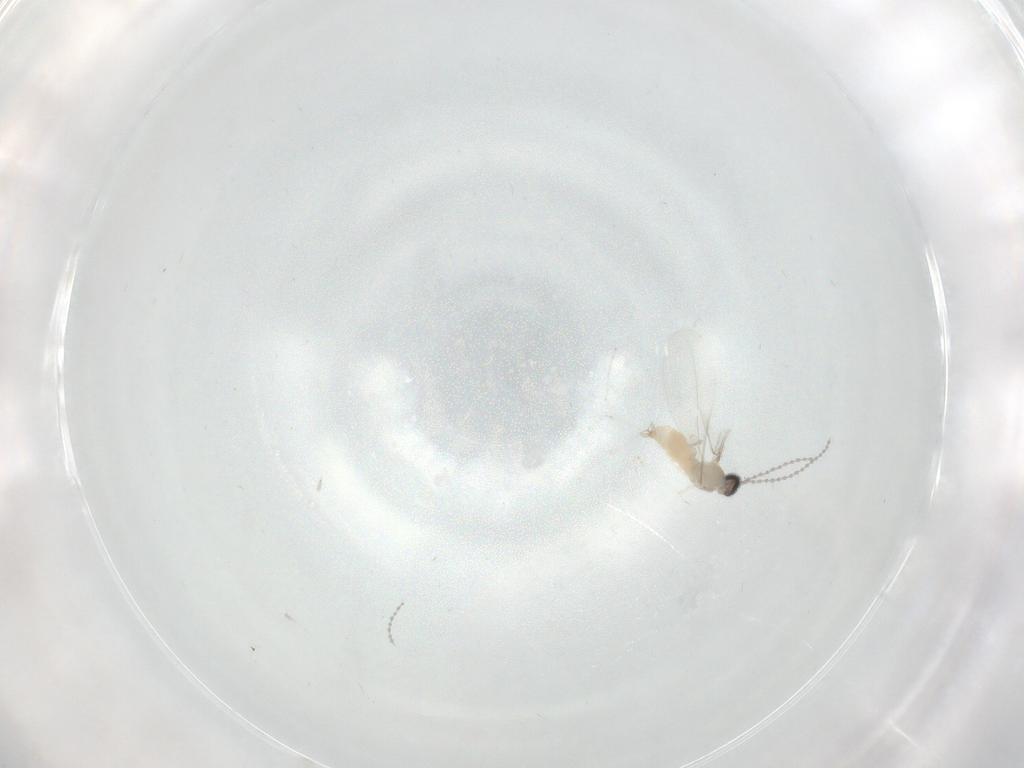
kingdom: Animalia
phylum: Arthropoda
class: Insecta
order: Diptera
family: Cecidomyiidae
